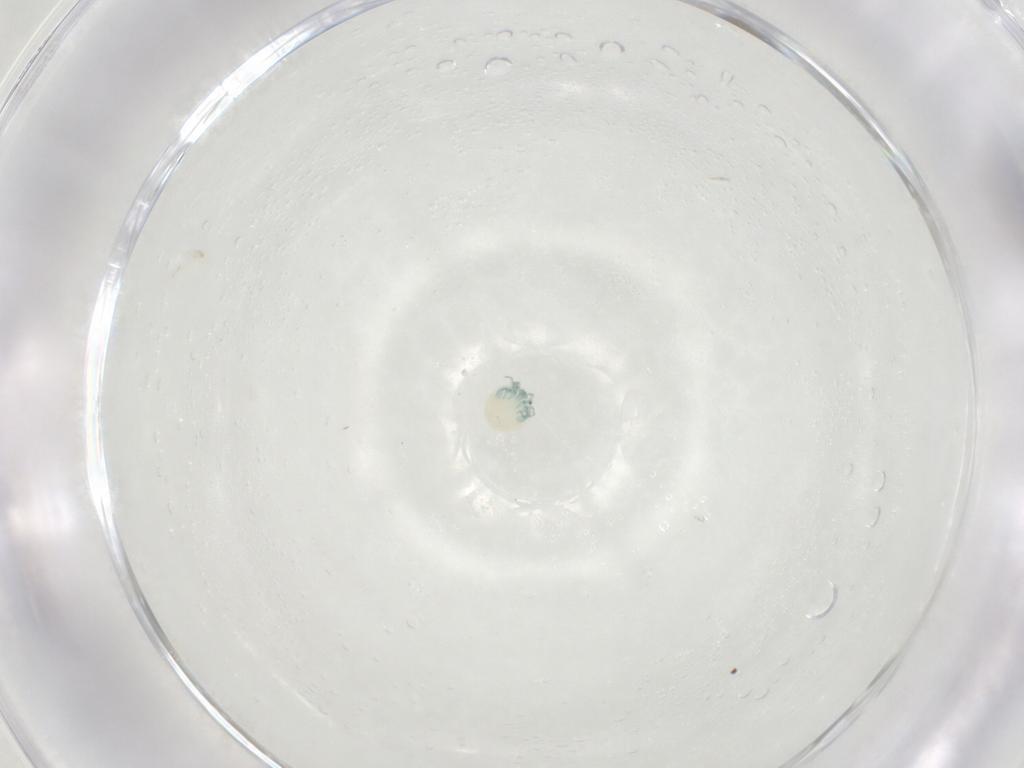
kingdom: Animalia
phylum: Arthropoda
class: Arachnida
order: Trombidiformes
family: Arrenuridae
